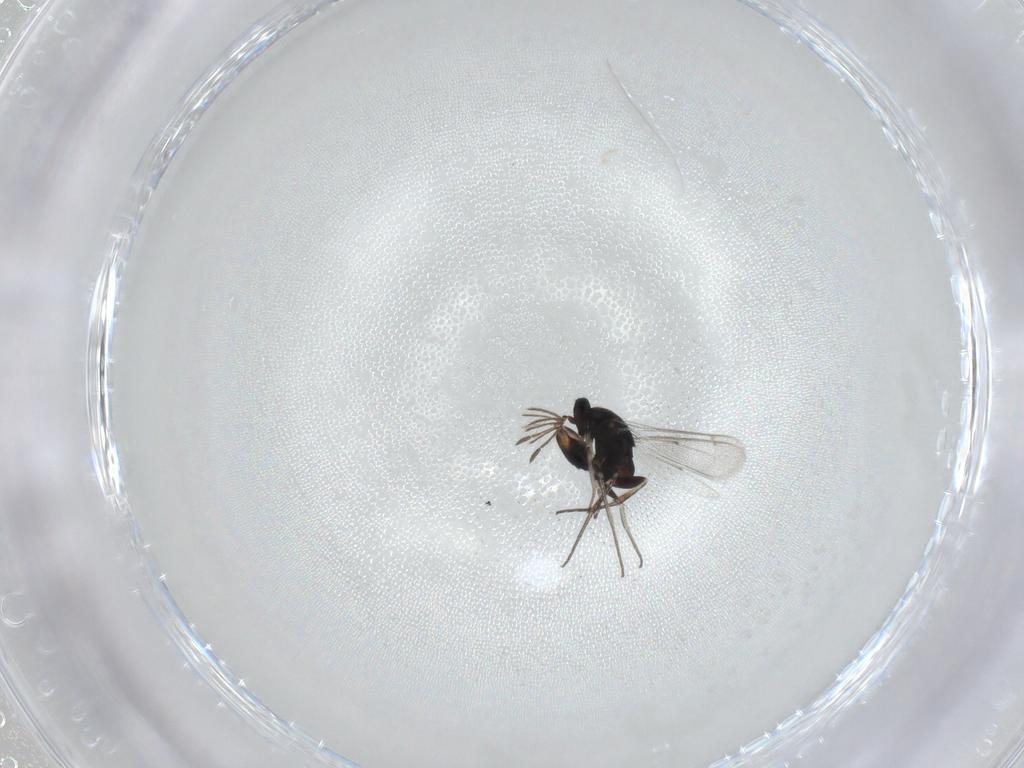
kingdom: Animalia
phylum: Arthropoda
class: Insecta
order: Hymenoptera
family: Eulophidae
